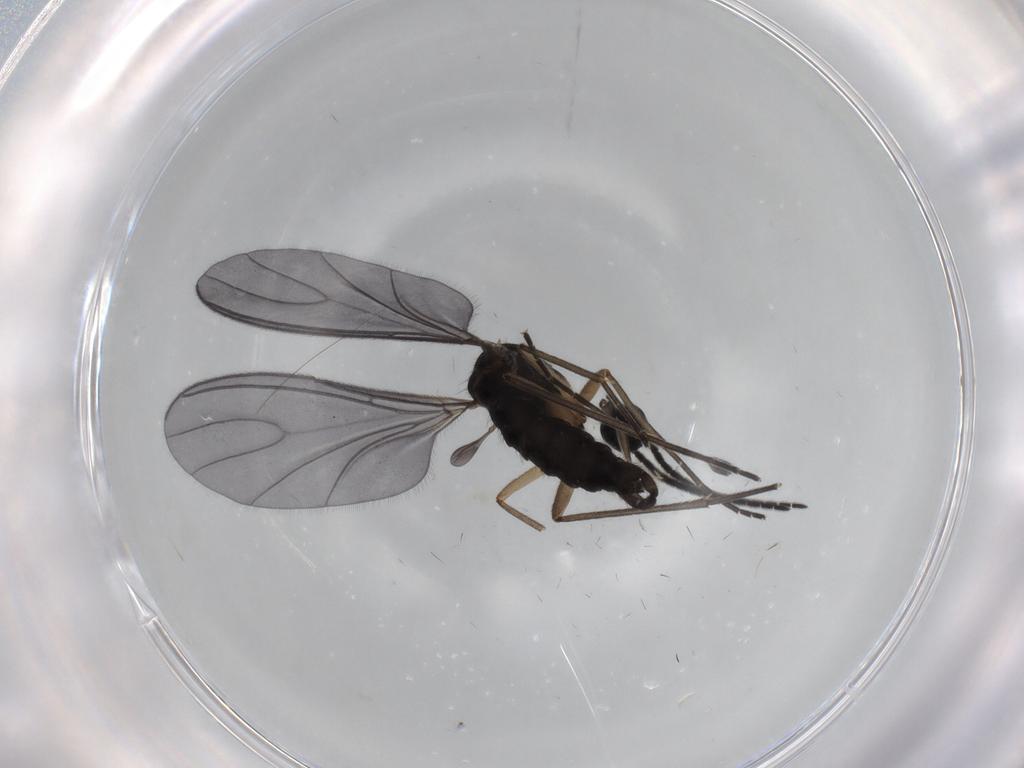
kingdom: Animalia
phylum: Arthropoda
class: Insecta
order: Diptera
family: Sciaridae
